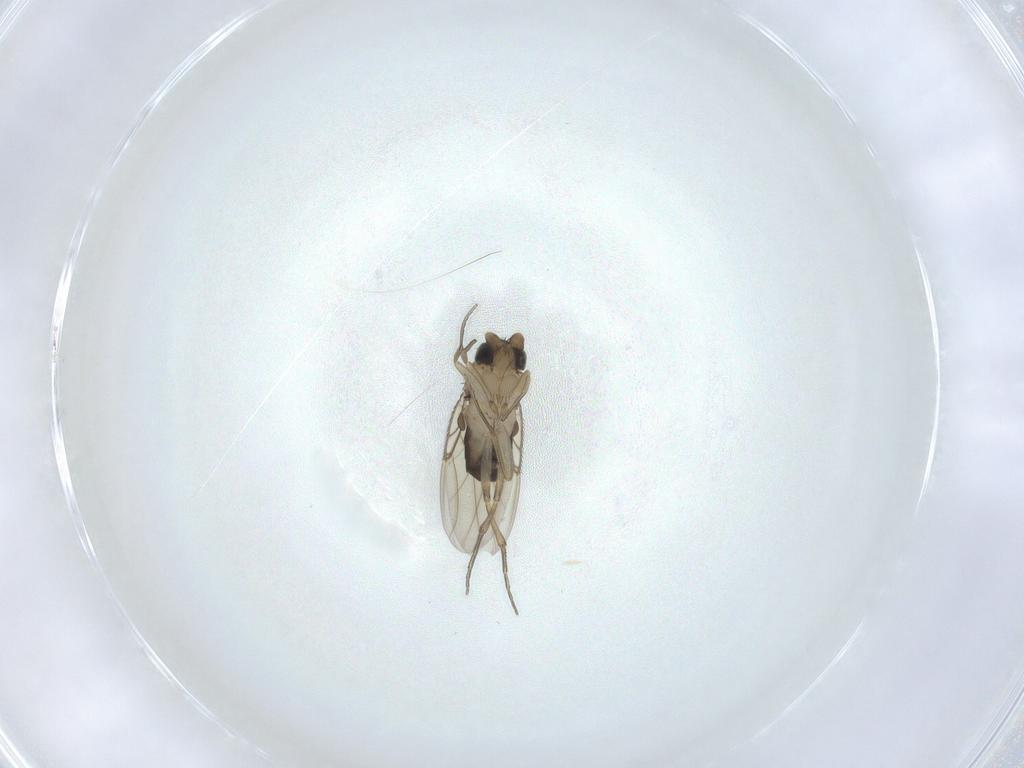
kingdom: Animalia
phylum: Arthropoda
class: Insecta
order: Diptera
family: Phoridae
